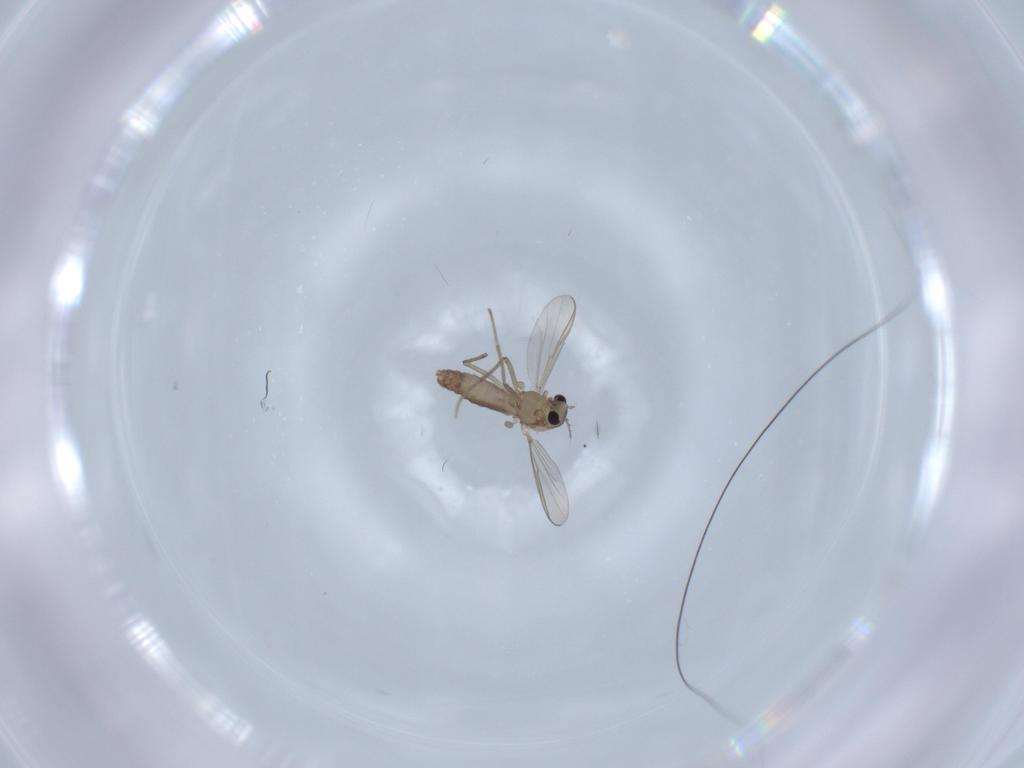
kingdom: Animalia
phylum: Arthropoda
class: Insecta
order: Diptera
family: Chironomidae
